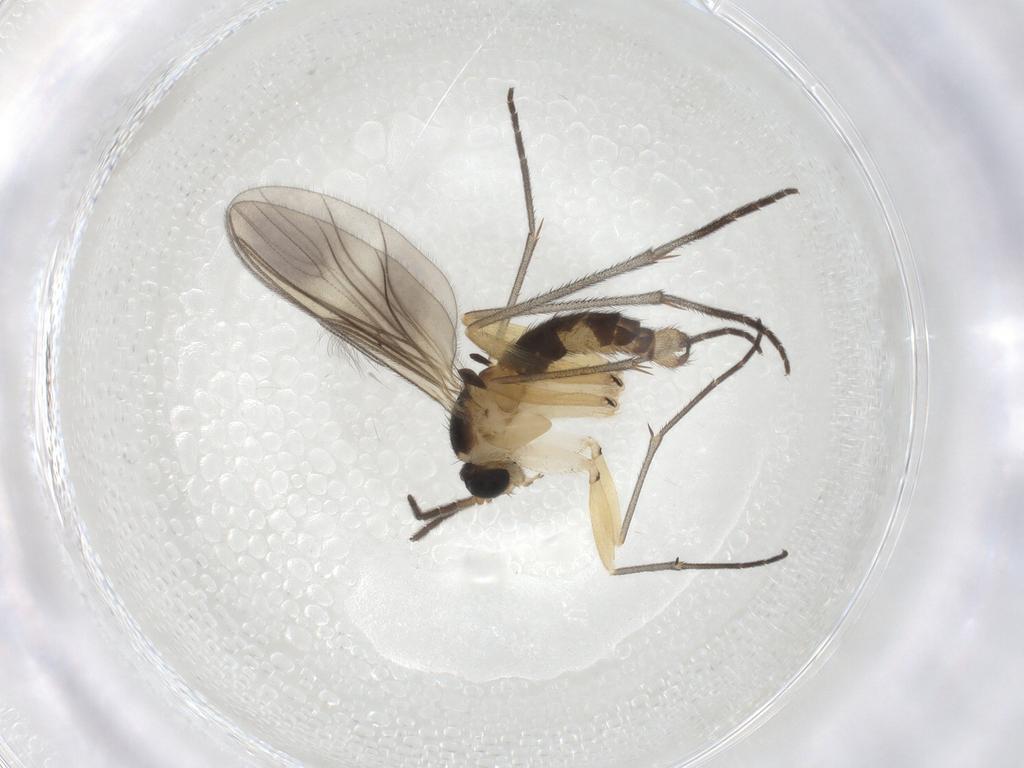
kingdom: Animalia
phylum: Arthropoda
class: Insecta
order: Diptera
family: Sciaridae
